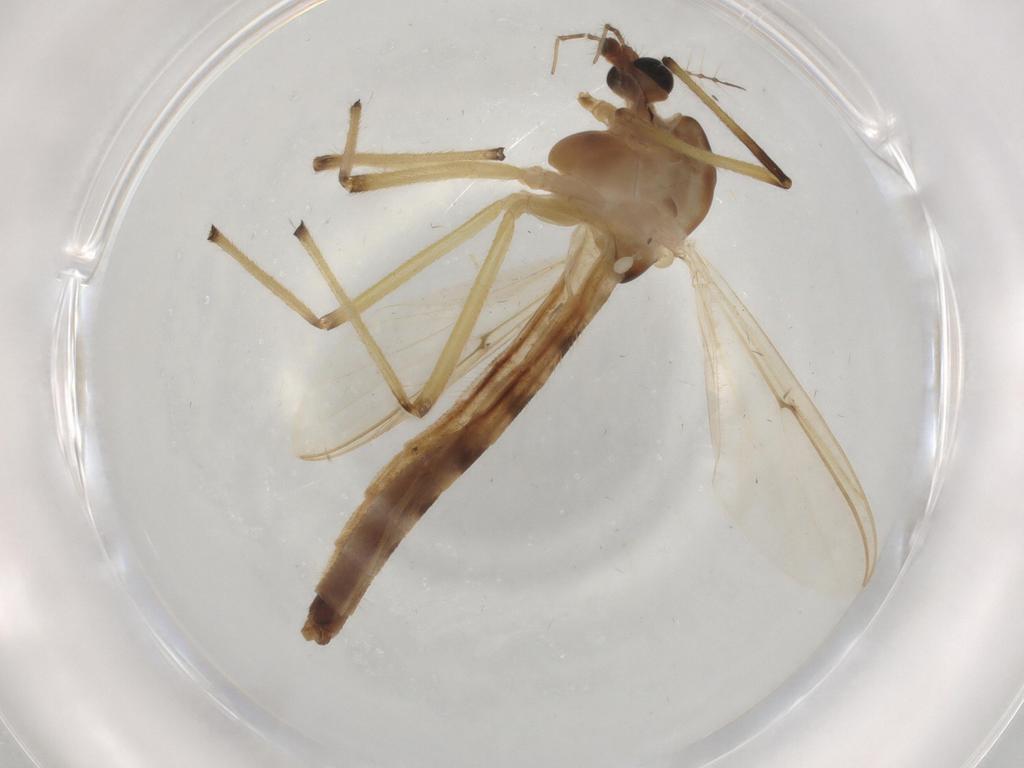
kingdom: Animalia
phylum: Arthropoda
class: Insecta
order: Diptera
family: Chironomidae
